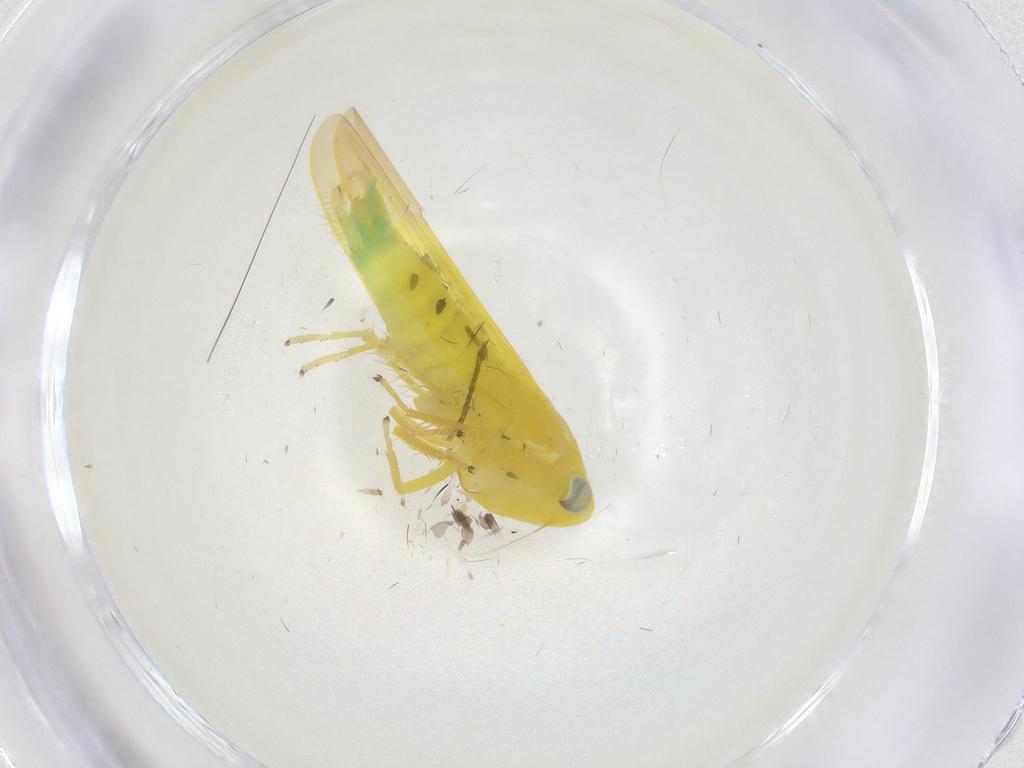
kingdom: Animalia
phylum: Arthropoda
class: Insecta
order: Hemiptera
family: Cicadellidae
